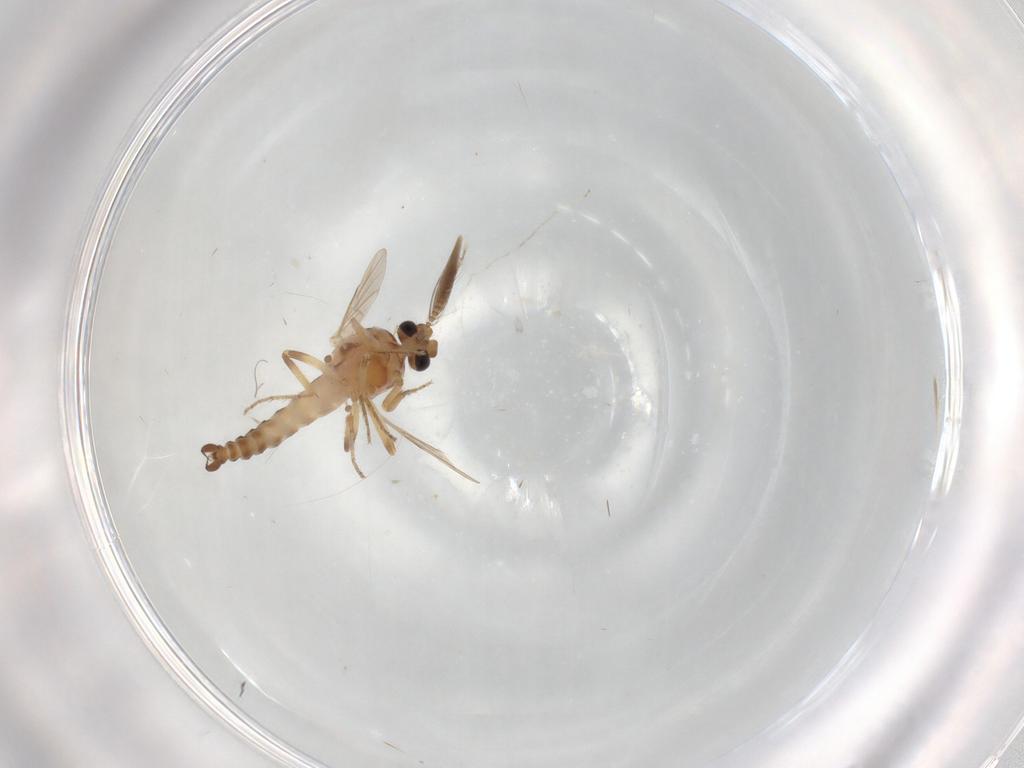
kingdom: Animalia
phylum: Arthropoda
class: Insecta
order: Diptera
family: Ceratopogonidae
